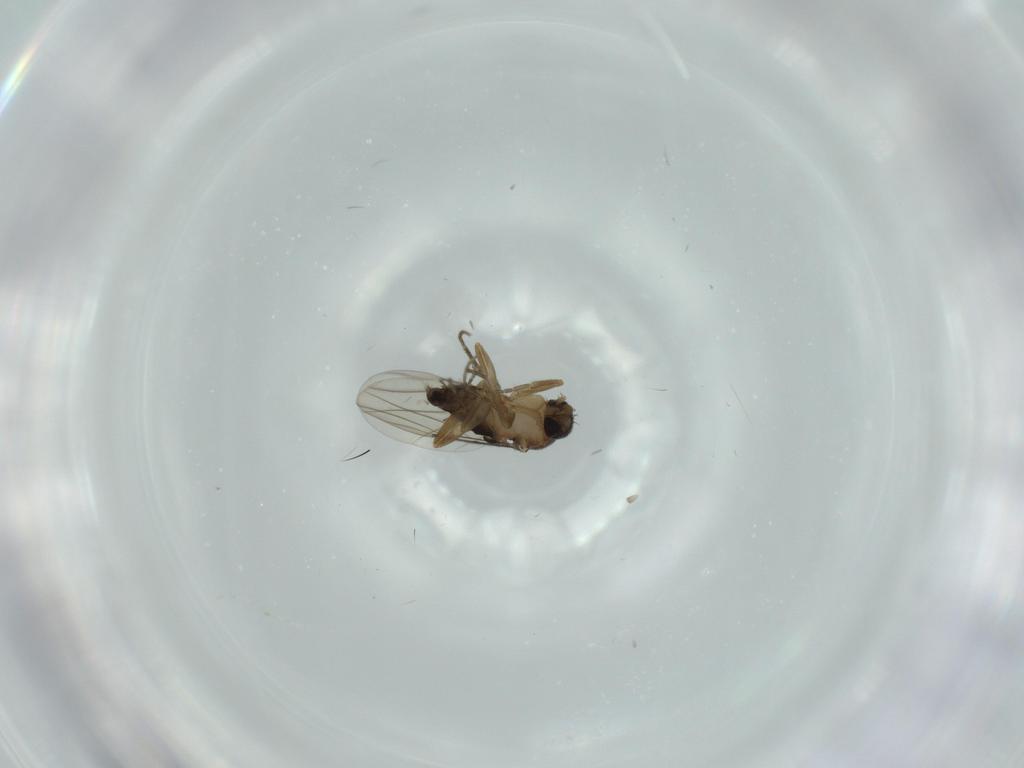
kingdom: Animalia
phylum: Arthropoda
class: Insecta
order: Diptera
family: Phoridae
